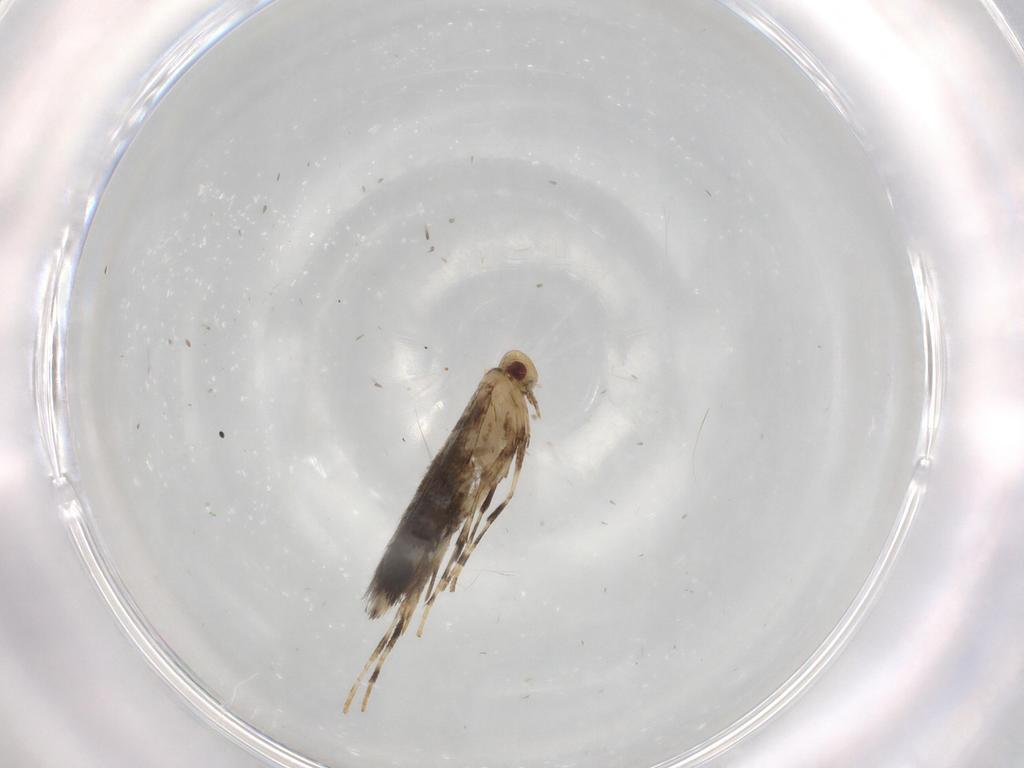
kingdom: Animalia
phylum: Arthropoda
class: Insecta
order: Lepidoptera
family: Gracillariidae
